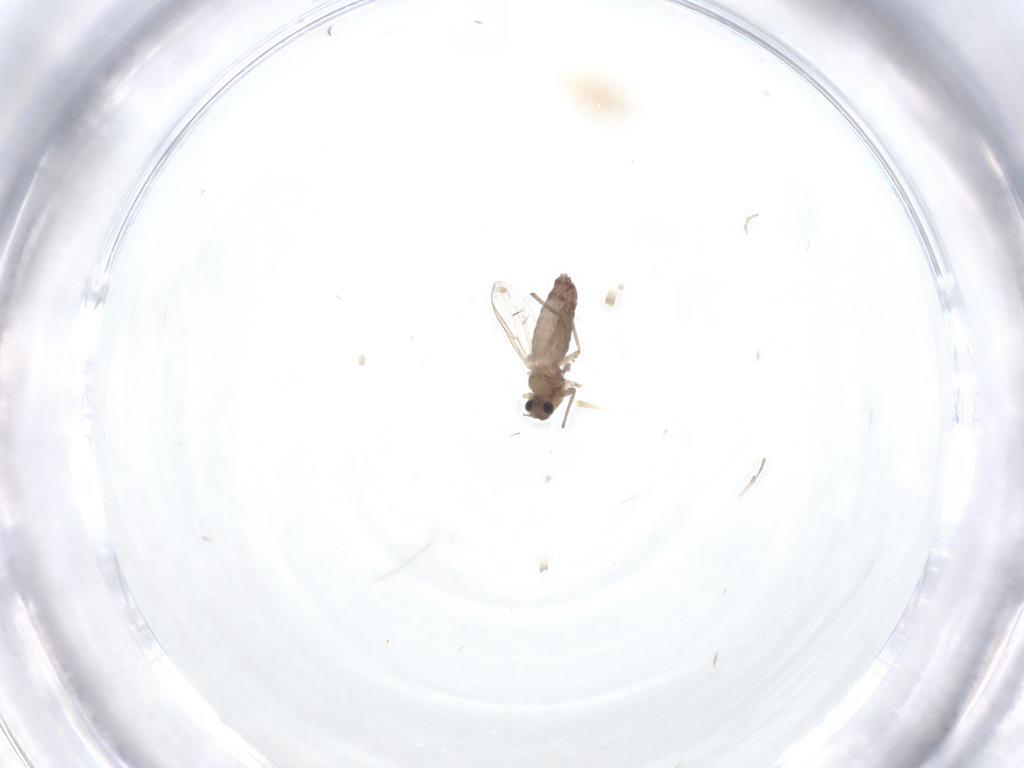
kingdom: Animalia
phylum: Arthropoda
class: Insecta
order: Diptera
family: Chironomidae
